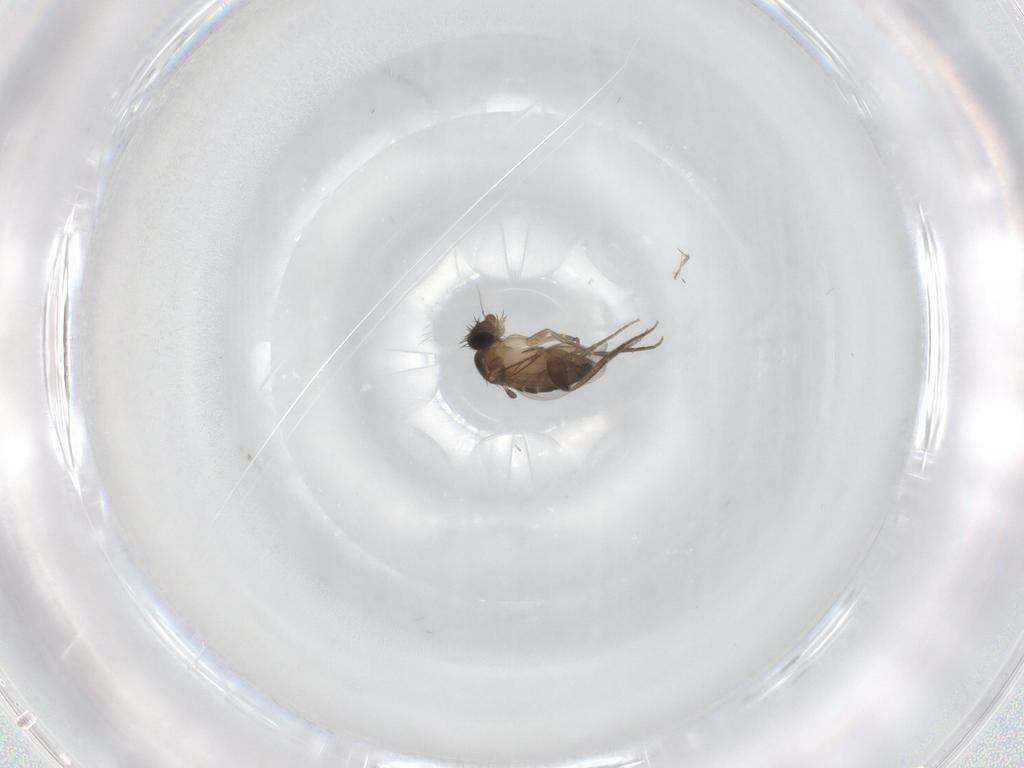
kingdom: Animalia
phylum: Arthropoda
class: Insecta
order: Diptera
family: Phoridae
